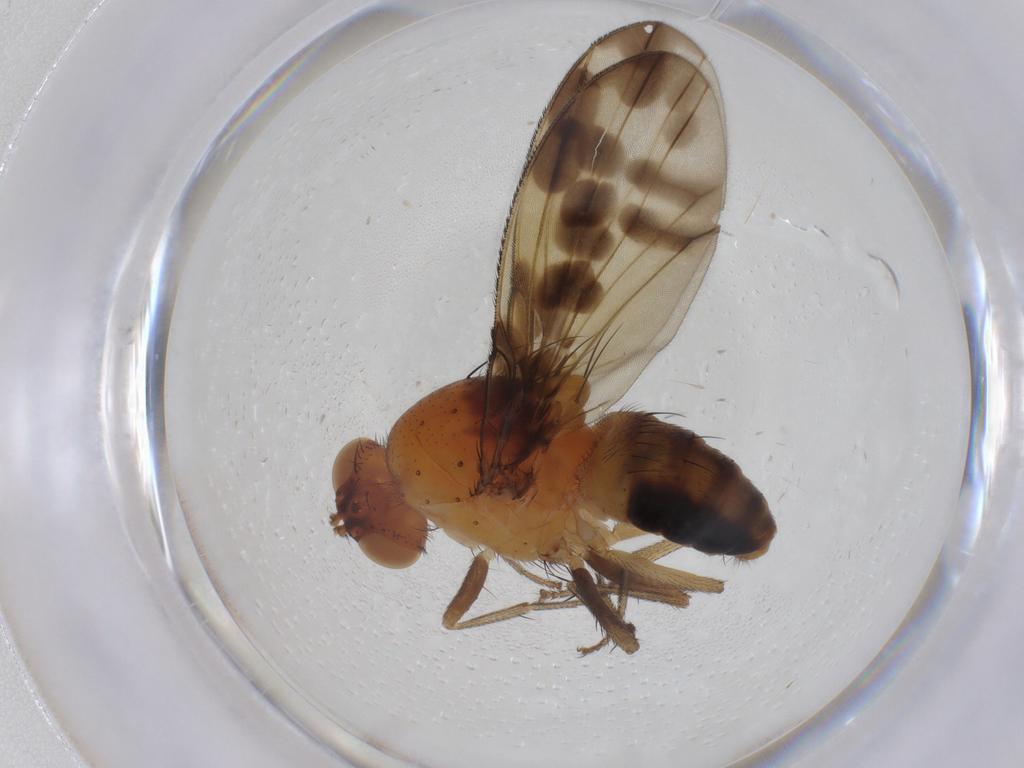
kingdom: Animalia
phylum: Arthropoda
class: Insecta
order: Diptera
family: Lauxaniidae
